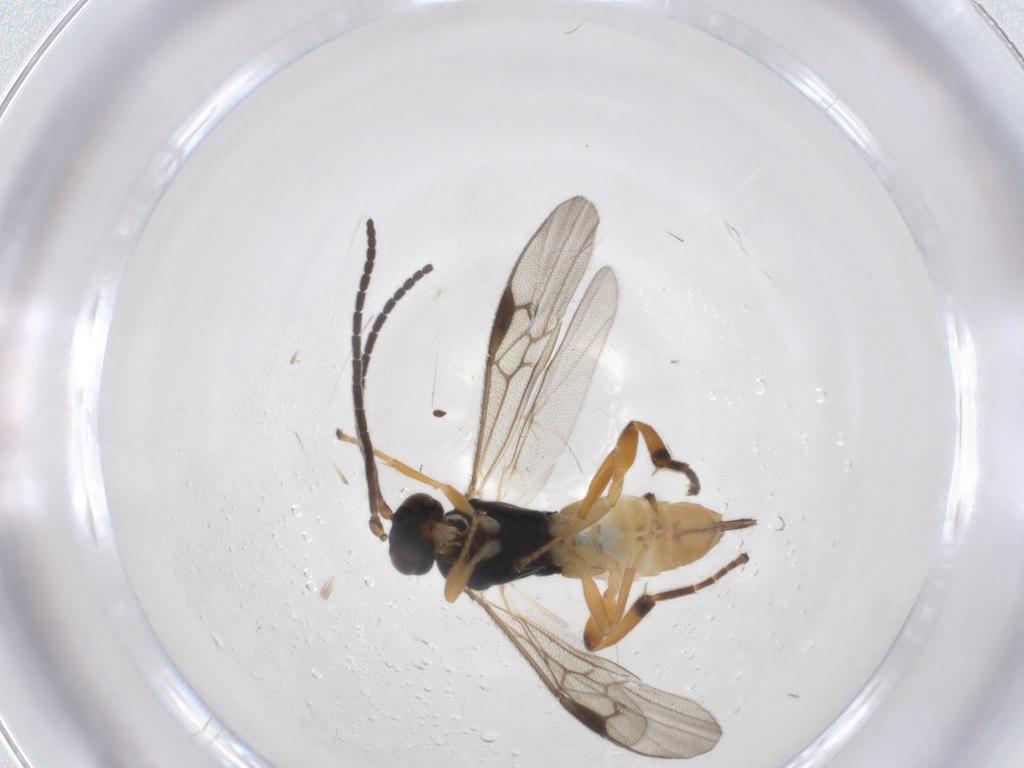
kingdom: Animalia
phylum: Arthropoda
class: Insecta
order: Hymenoptera
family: Braconidae
